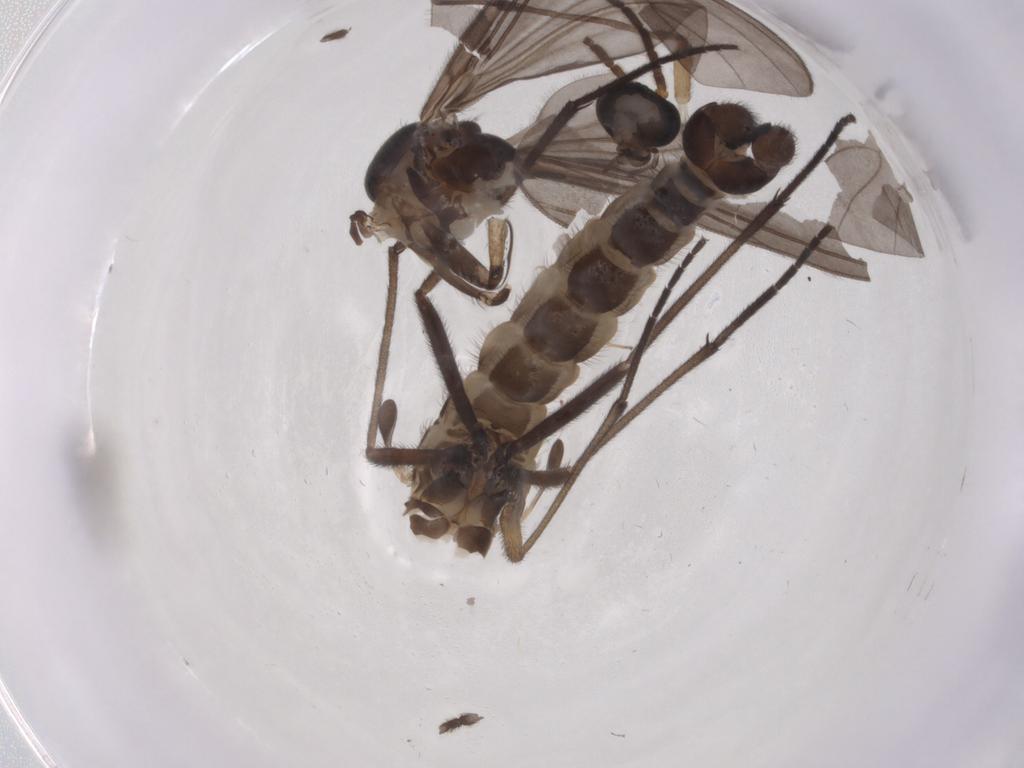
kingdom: Animalia
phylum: Arthropoda
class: Insecta
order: Diptera
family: Sciaridae
